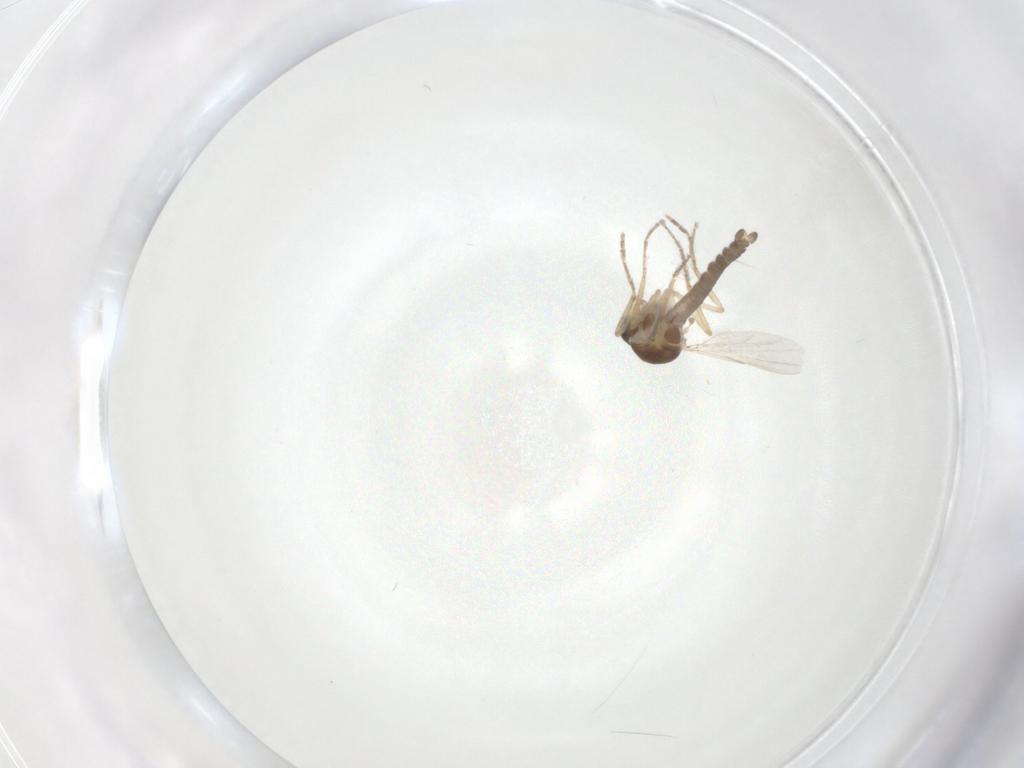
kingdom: Animalia
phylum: Arthropoda
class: Insecta
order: Diptera
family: Ceratopogonidae
